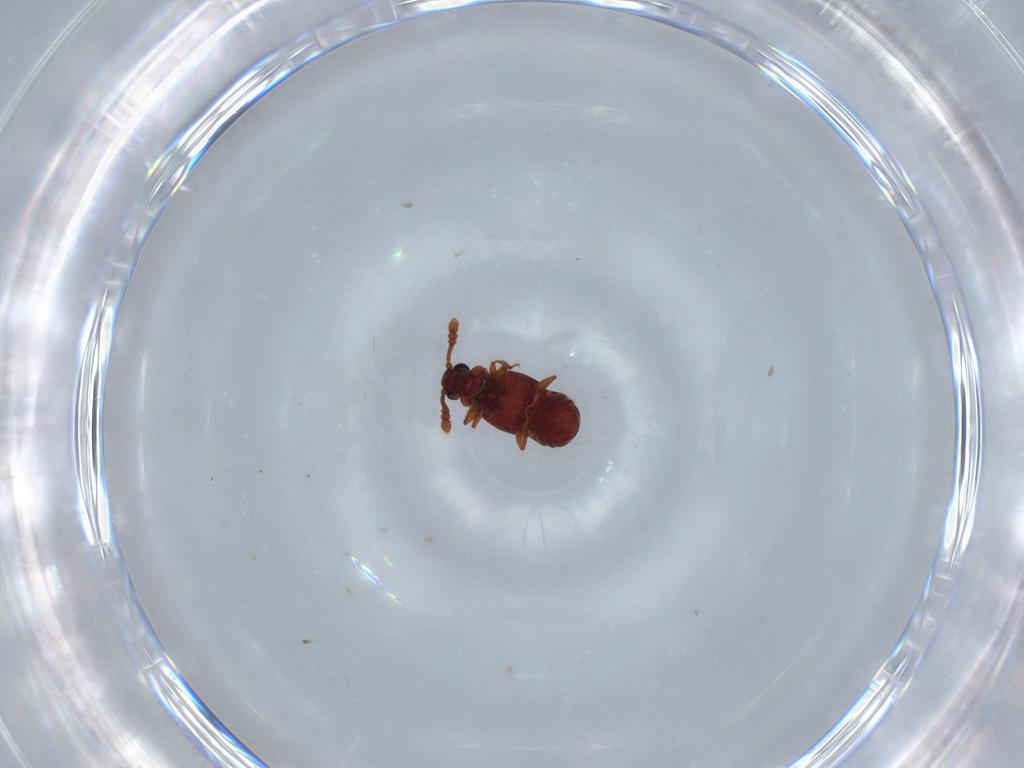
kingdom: Animalia
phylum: Arthropoda
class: Insecta
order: Coleoptera
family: Staphylinidae
